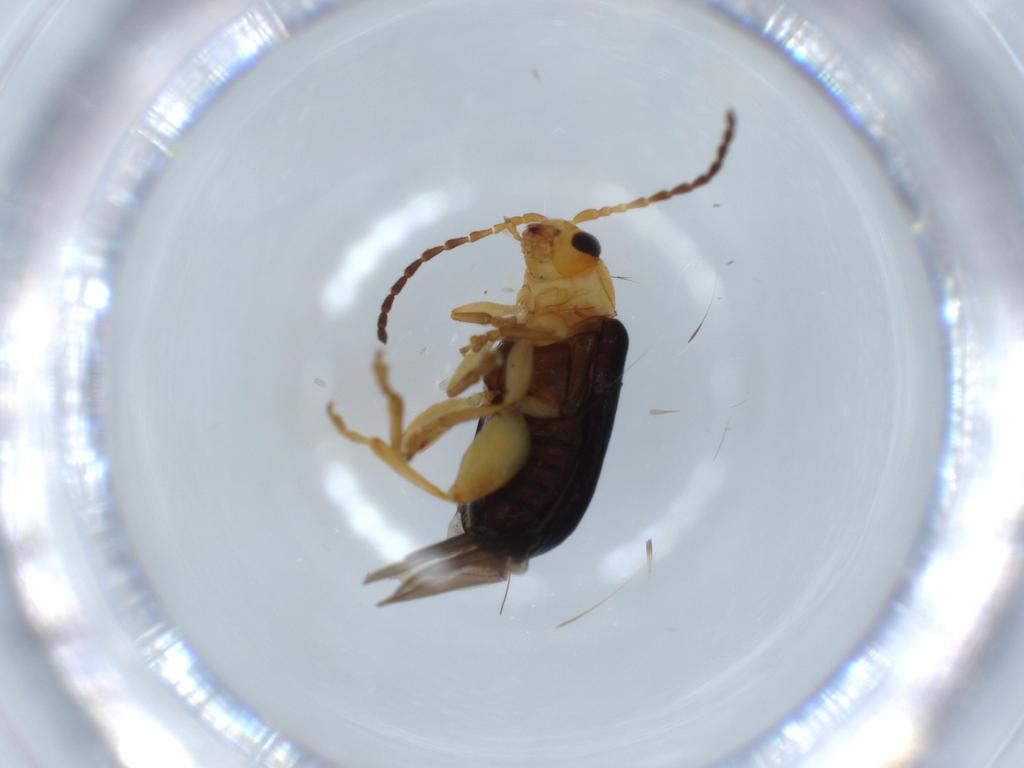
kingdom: Animalia
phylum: Arthropoda
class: Insecta
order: Coleoptera
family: Chrysomelidae
